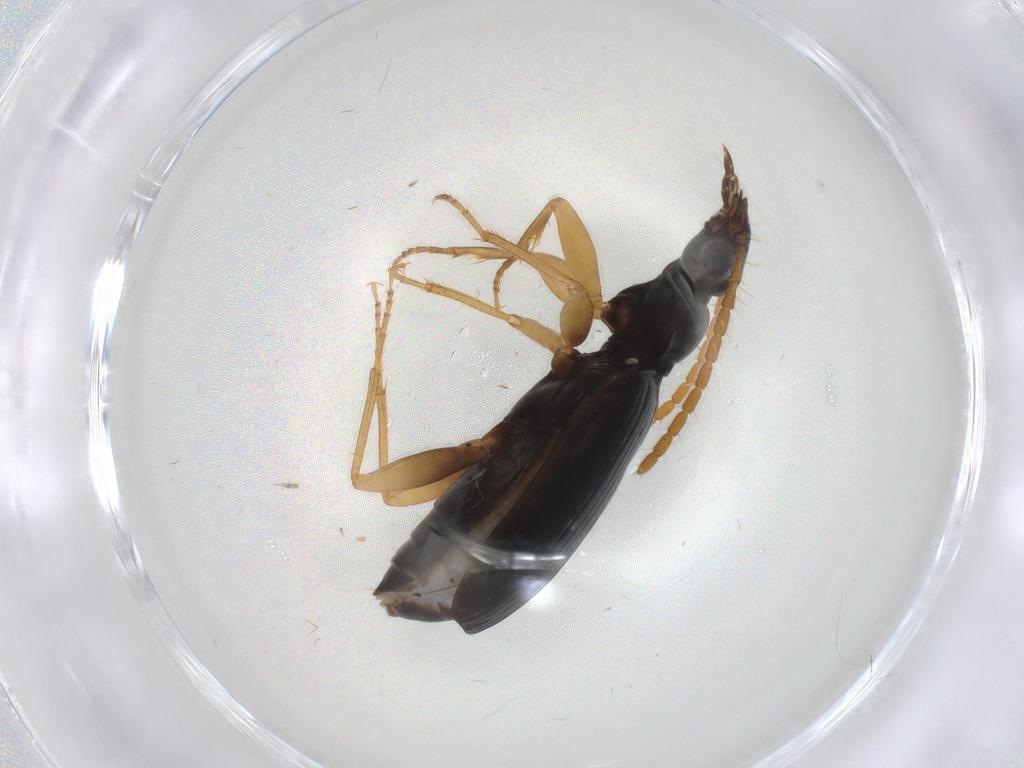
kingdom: Animalia
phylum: Arthropoda
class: Insecta
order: Coleoptera
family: Carabidae
